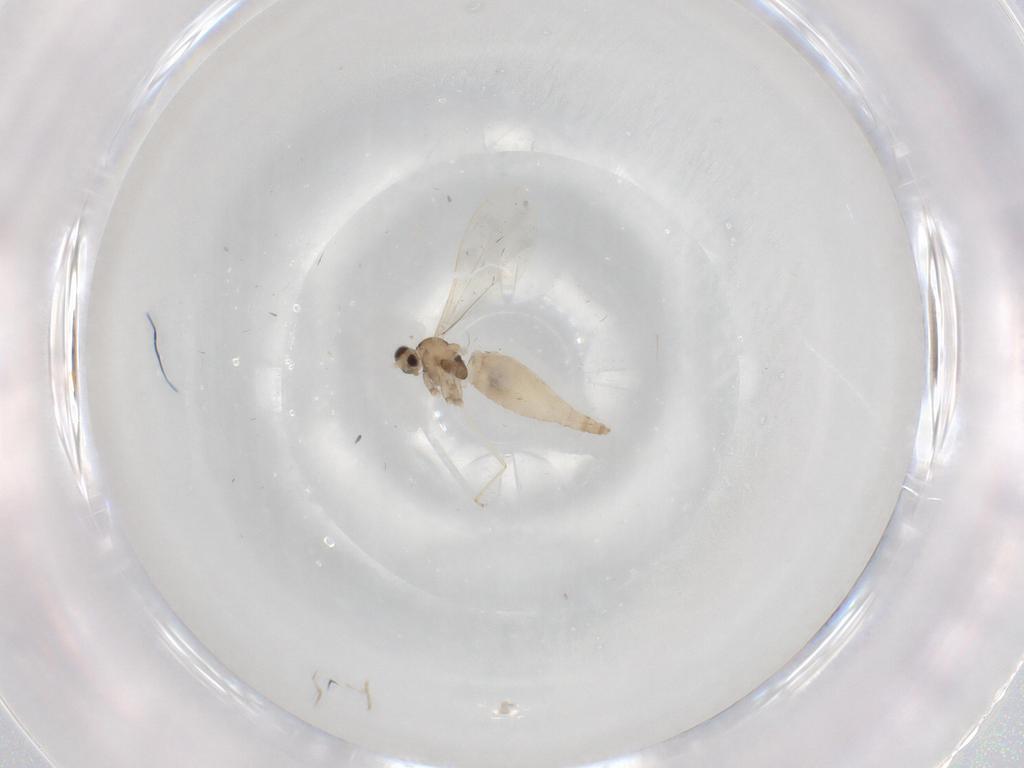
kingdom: Animalia
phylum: Arthropoda
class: Insecta
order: Diptera
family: Cecidomyiidae
